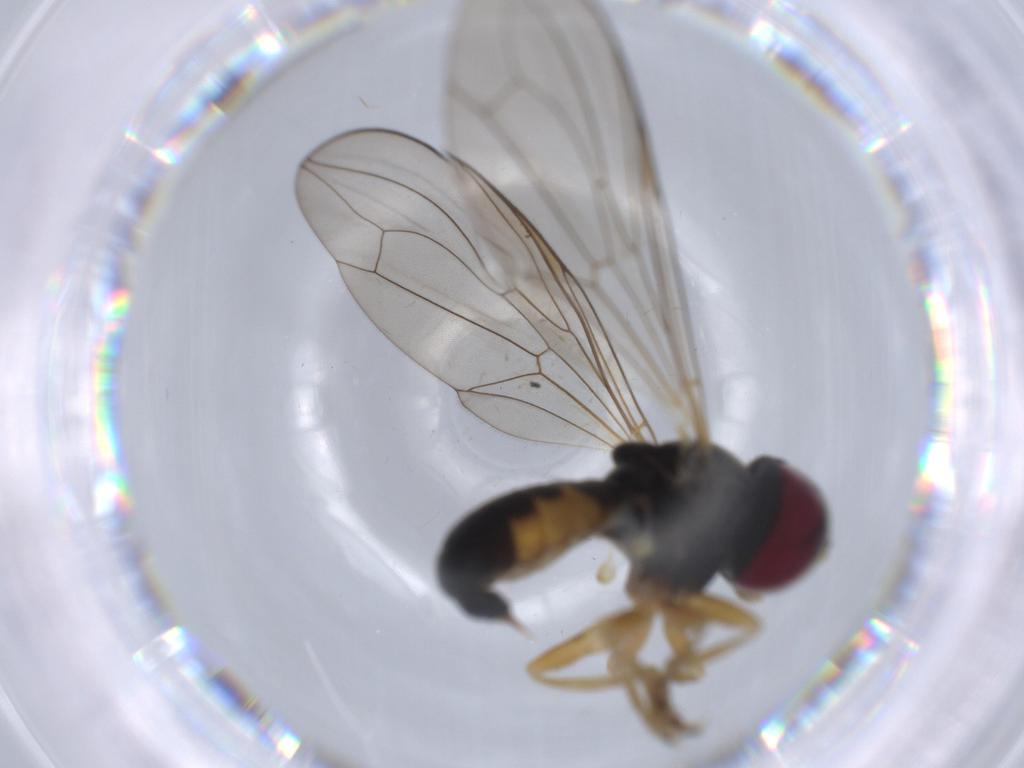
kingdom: Animalia
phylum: Arthropoda
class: Insecta
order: Diptera
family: Pipunculidae
